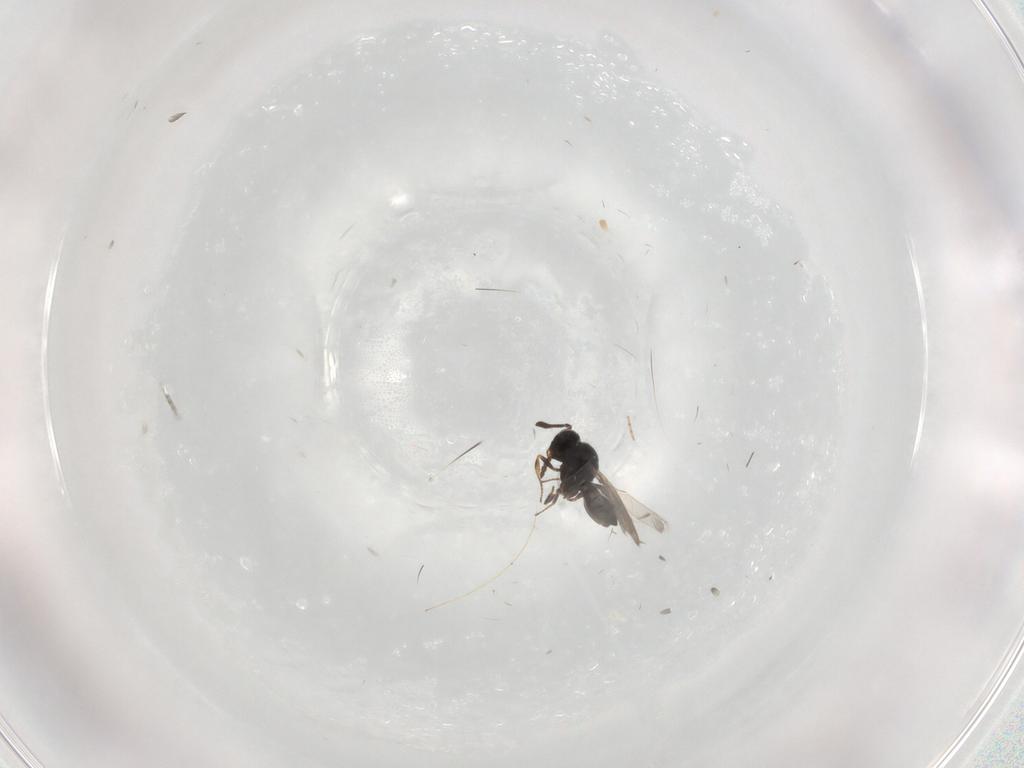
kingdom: Animalia
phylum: Arthropoda
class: Insecta
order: Hymenoptera
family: Scelionidae
